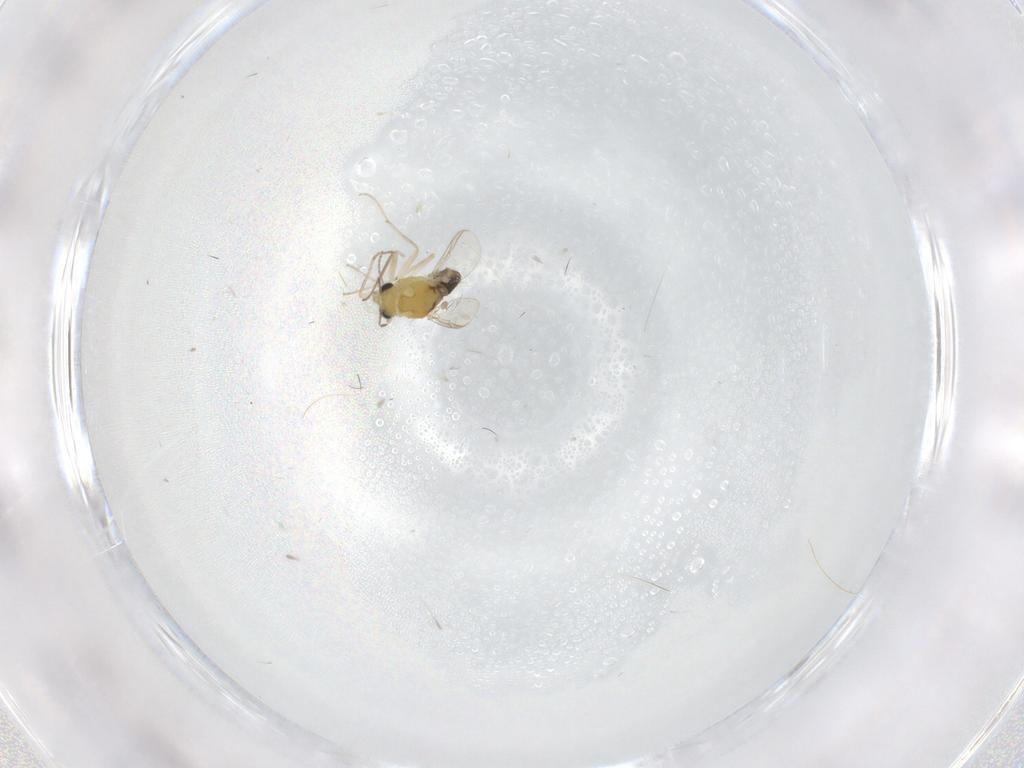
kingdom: Animalia
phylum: Arthropoda
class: Insecta
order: Diptera
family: Chironomidae
